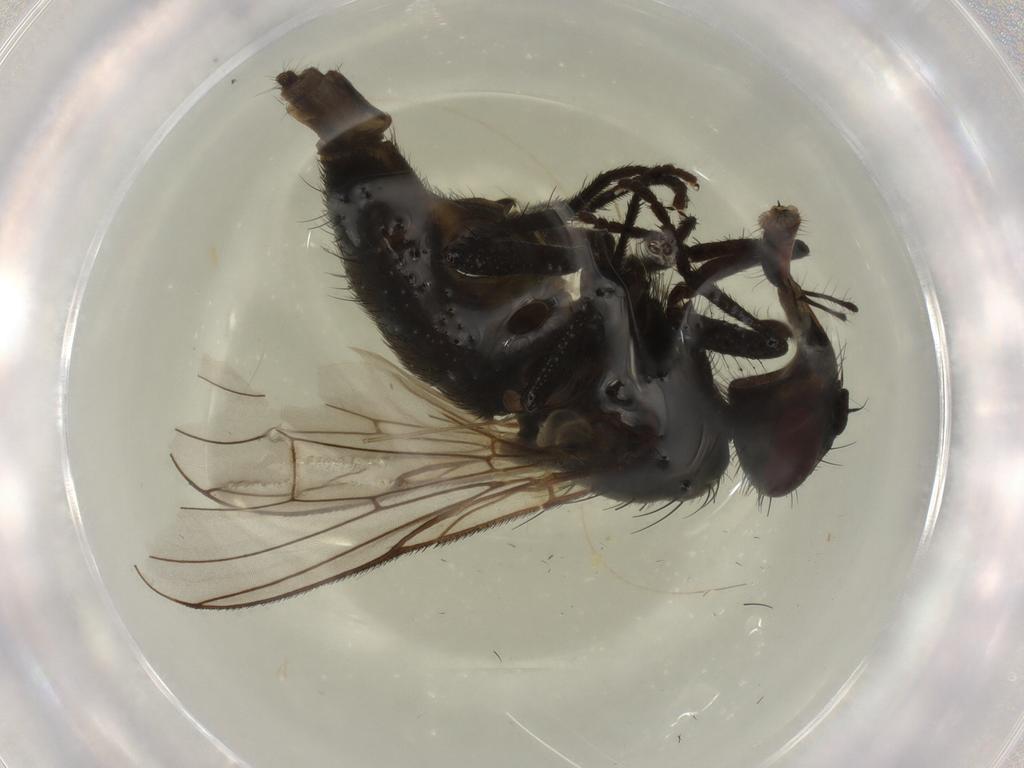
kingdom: Animalia
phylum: Arthropoda
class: Insecta
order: Diptera
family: Muscidae
